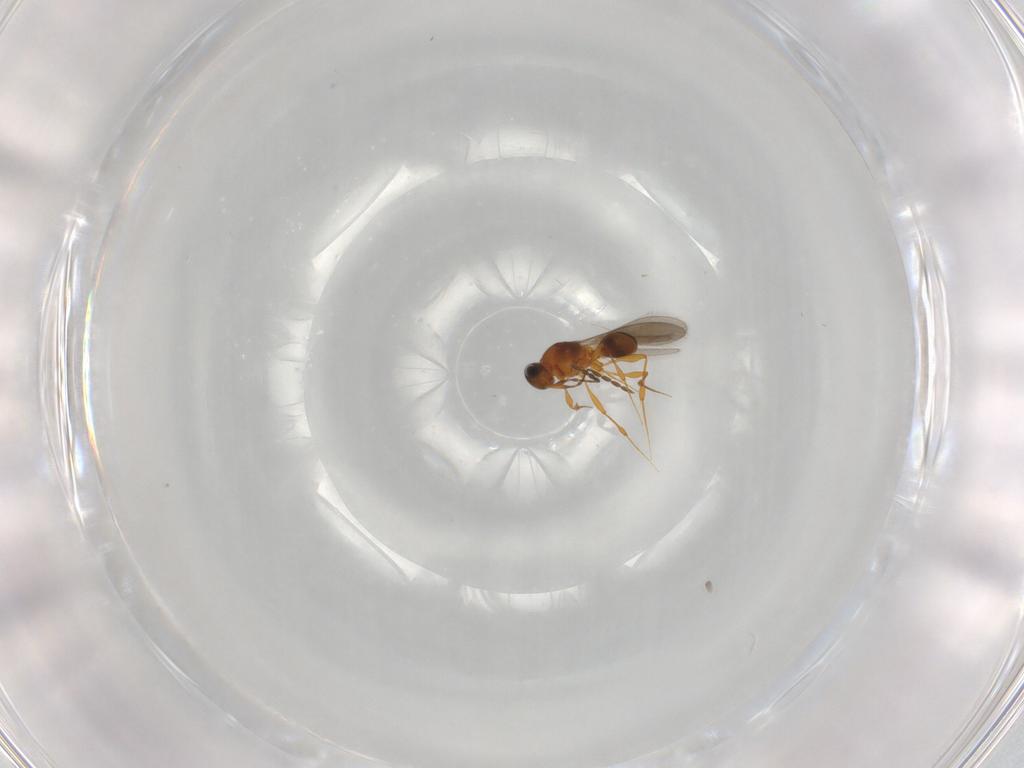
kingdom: Animalia
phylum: Arthropoda
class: Insecta
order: Hymenoptera
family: Platygastridae
